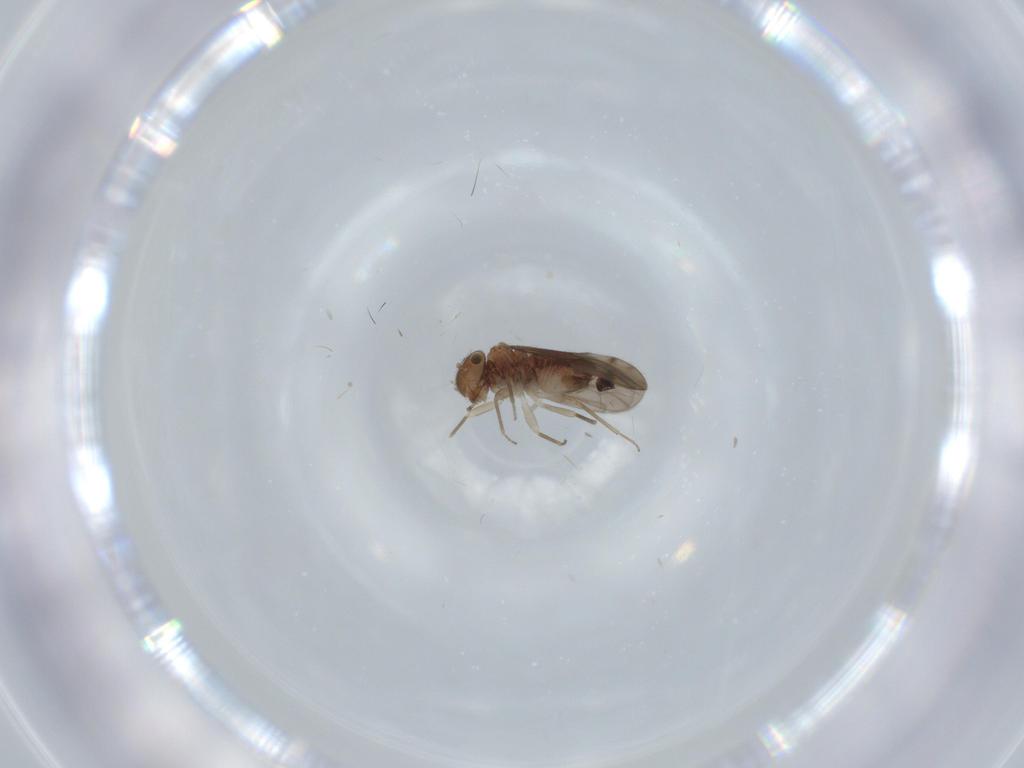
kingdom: Animalia
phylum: Arthropoda
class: Insecta
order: Psocodea
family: Ectopsocidae
